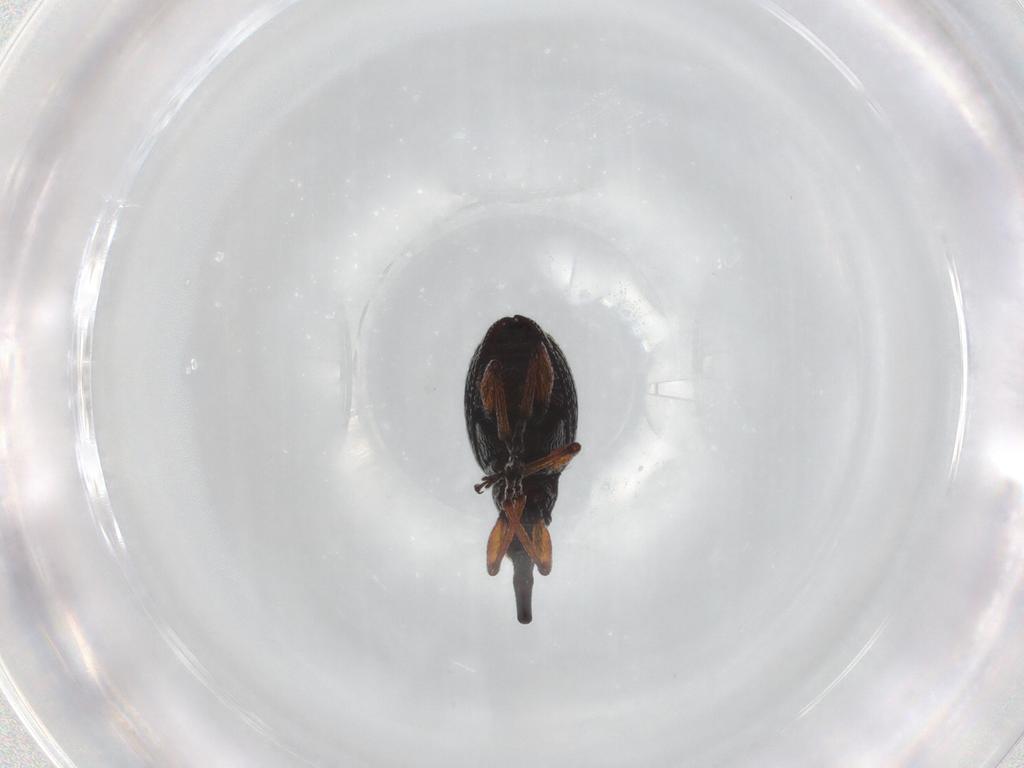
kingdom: Animalia
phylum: Arthropoda
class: Insecta
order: Coleoptera
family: Brentidae
